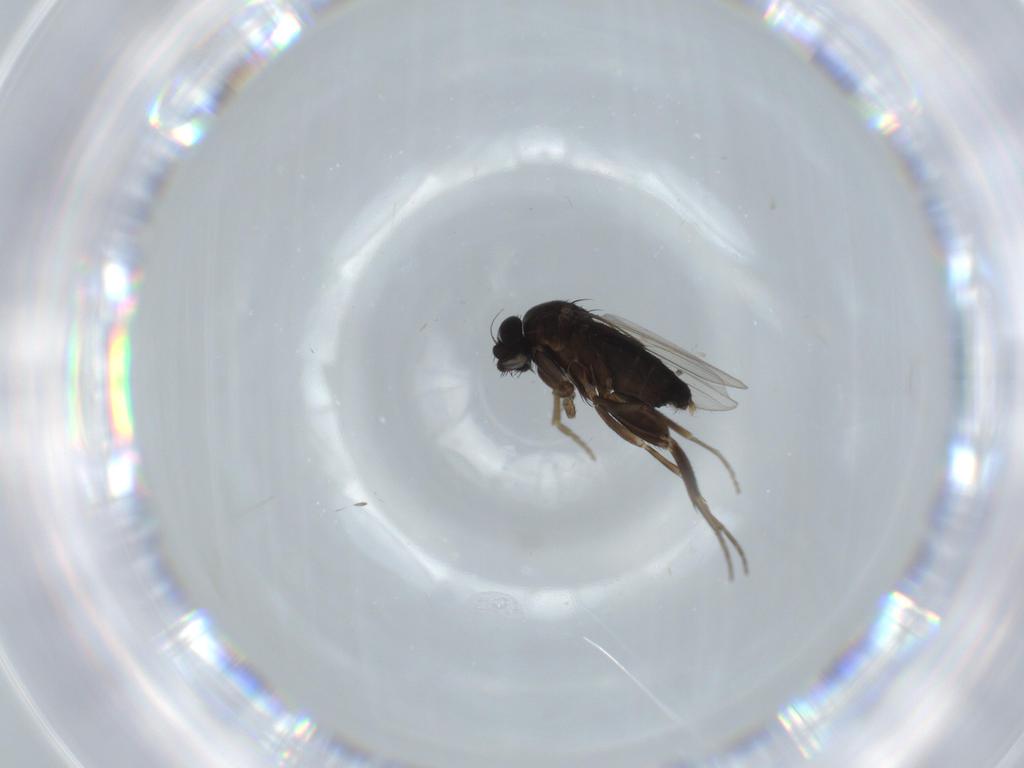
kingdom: Animalia
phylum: Arthropoda
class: Insecta
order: Diptera
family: Phoridae
